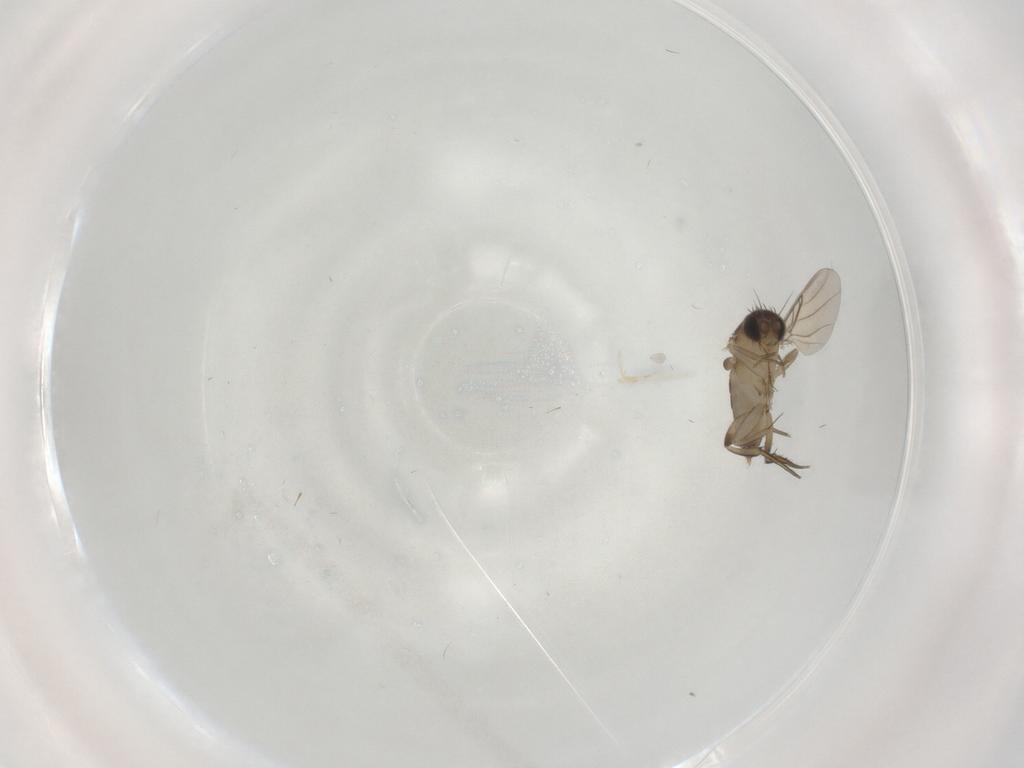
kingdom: Animalia
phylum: Arthropoda
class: Insecta
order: Diptera
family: Phoridae
